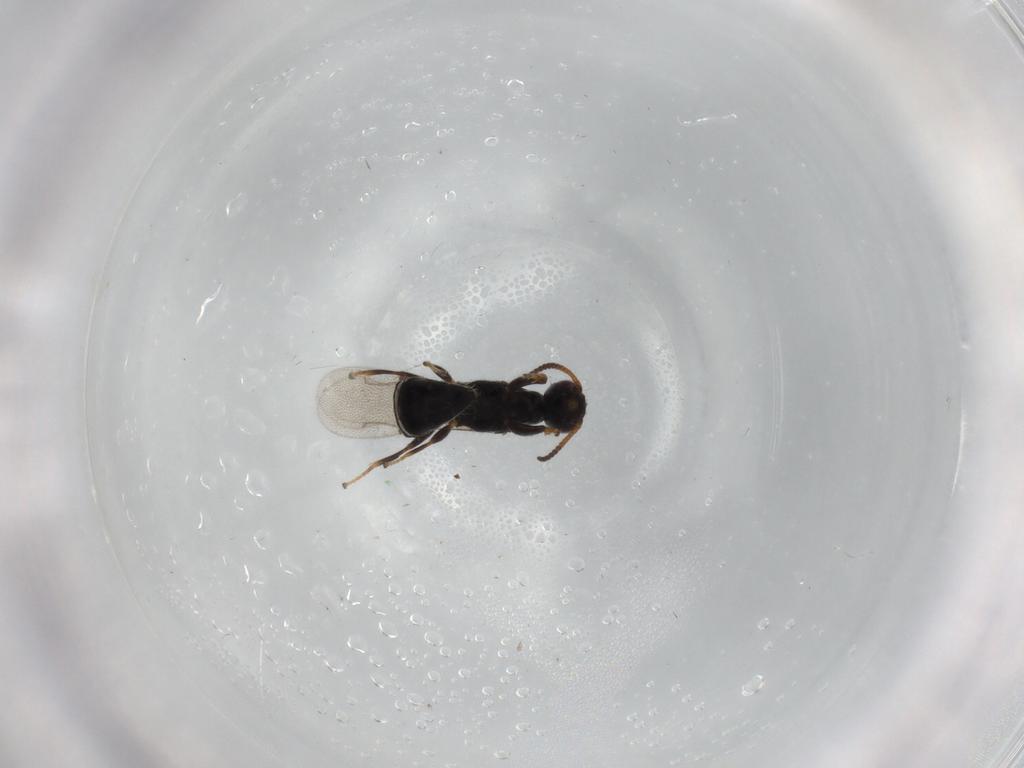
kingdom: Animalia
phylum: Arthropoda
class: Insecta
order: Hymenoptera
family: Bethylidae
